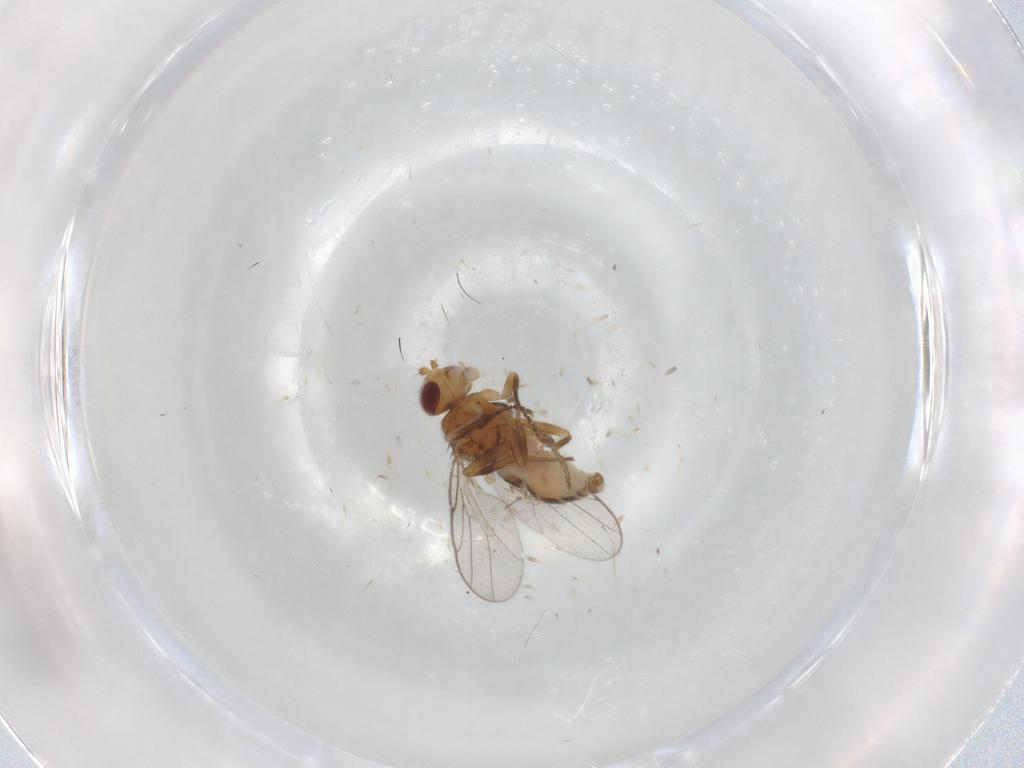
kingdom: Animalia
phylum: Arthropoda
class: Insecta
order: Diptera
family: Chloropidae
